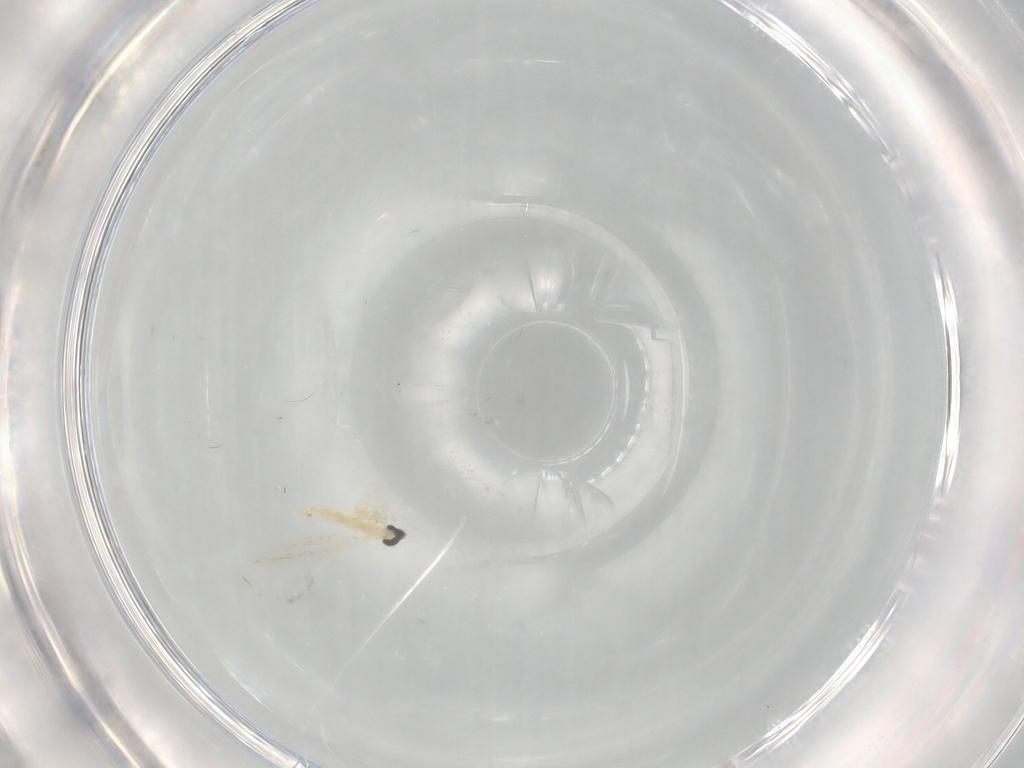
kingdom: Animalia
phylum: Arthropoda
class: Insecta
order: Diptera
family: Cecidomyiidae
